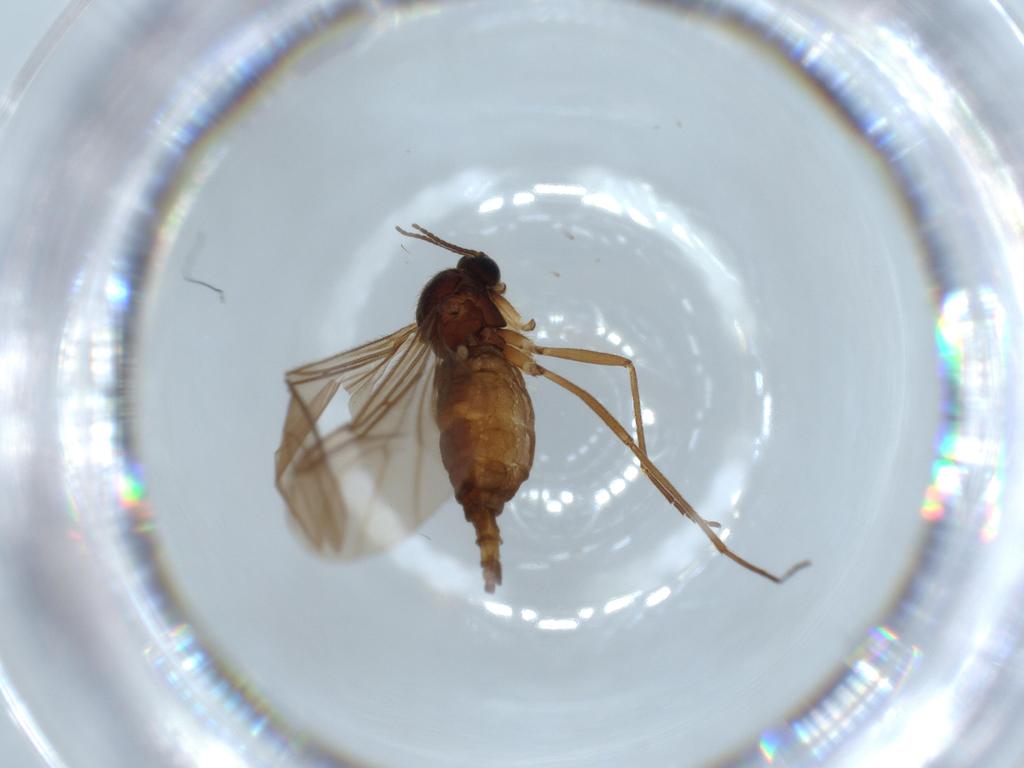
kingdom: Animalia
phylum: Arthropoda
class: Insecta
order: Diptera
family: Sciaridae
